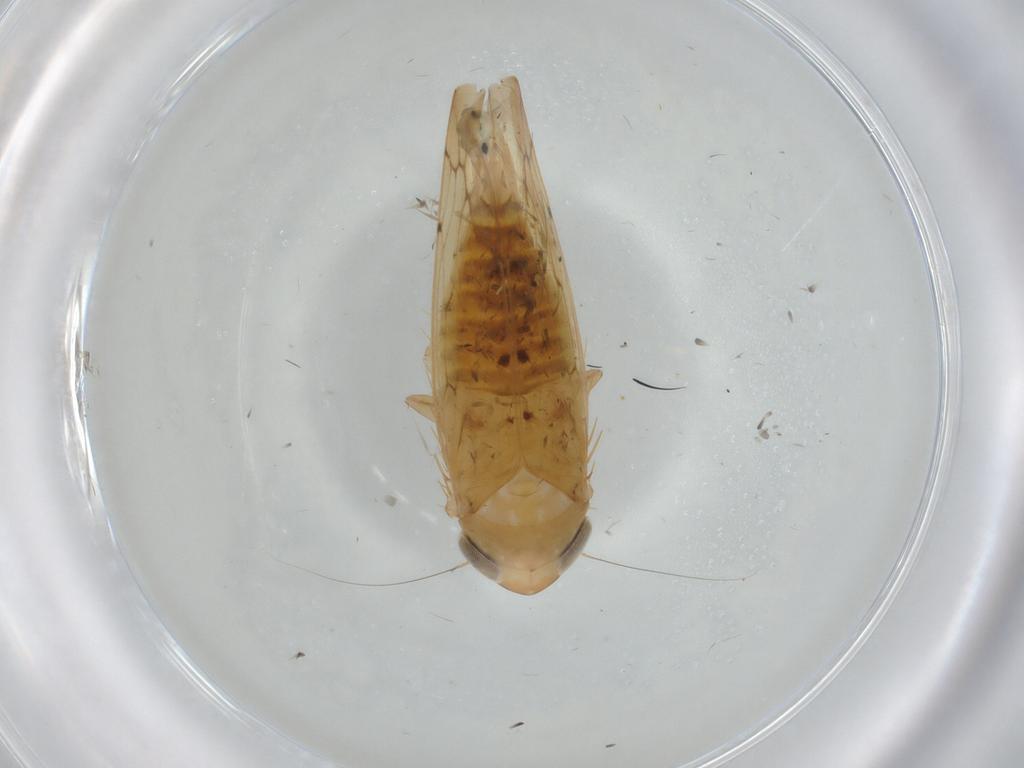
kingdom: Animalia
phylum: Arthropoda
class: Insecta
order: Hemiptera
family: Cicadellidae
